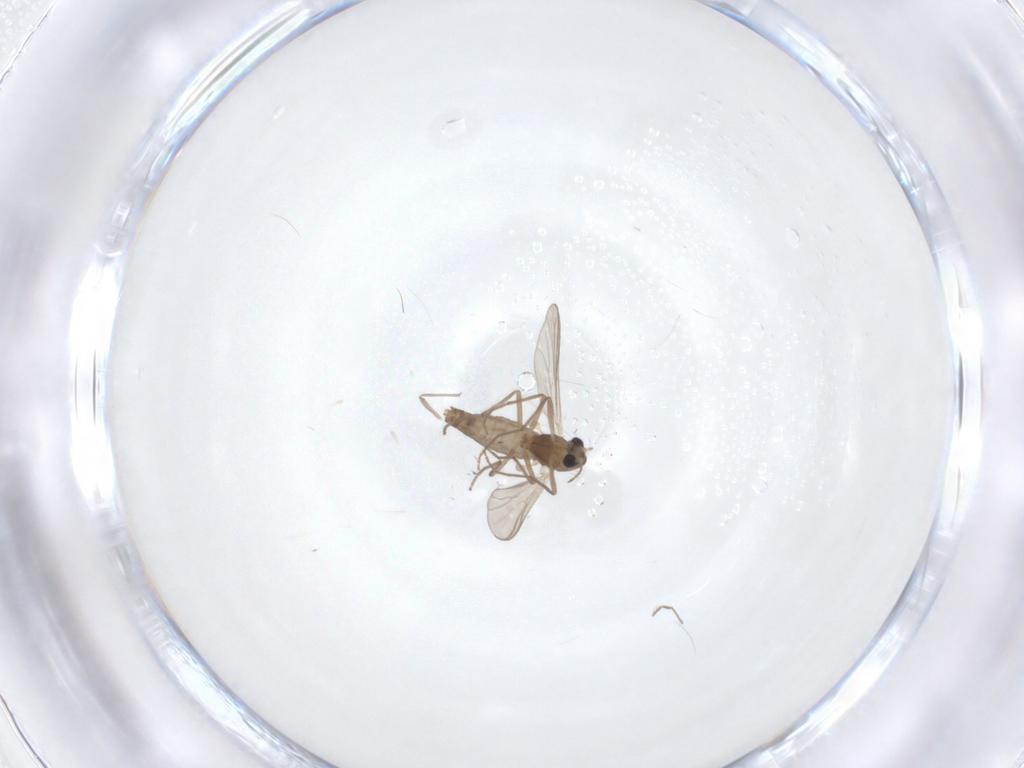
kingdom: Animalia
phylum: Arthropoda
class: Insecta
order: Diptera
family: Chironomidae
